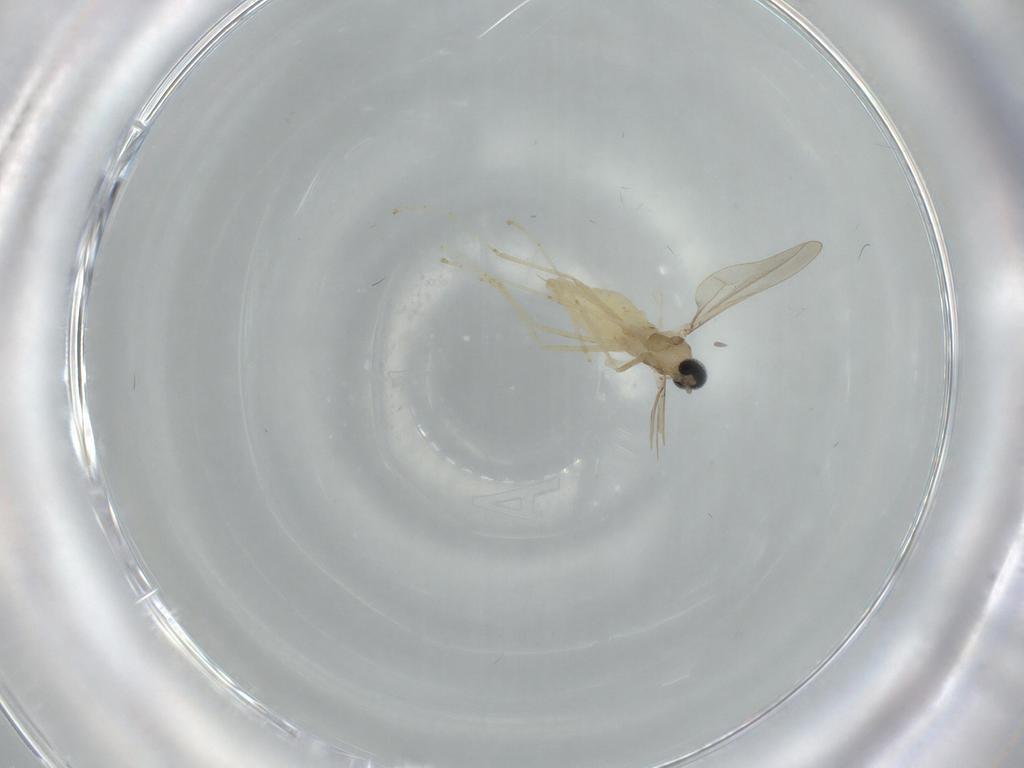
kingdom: Animalia
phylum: Arthropoda
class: Insecta
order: Diptera
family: Cecidomyiidae
